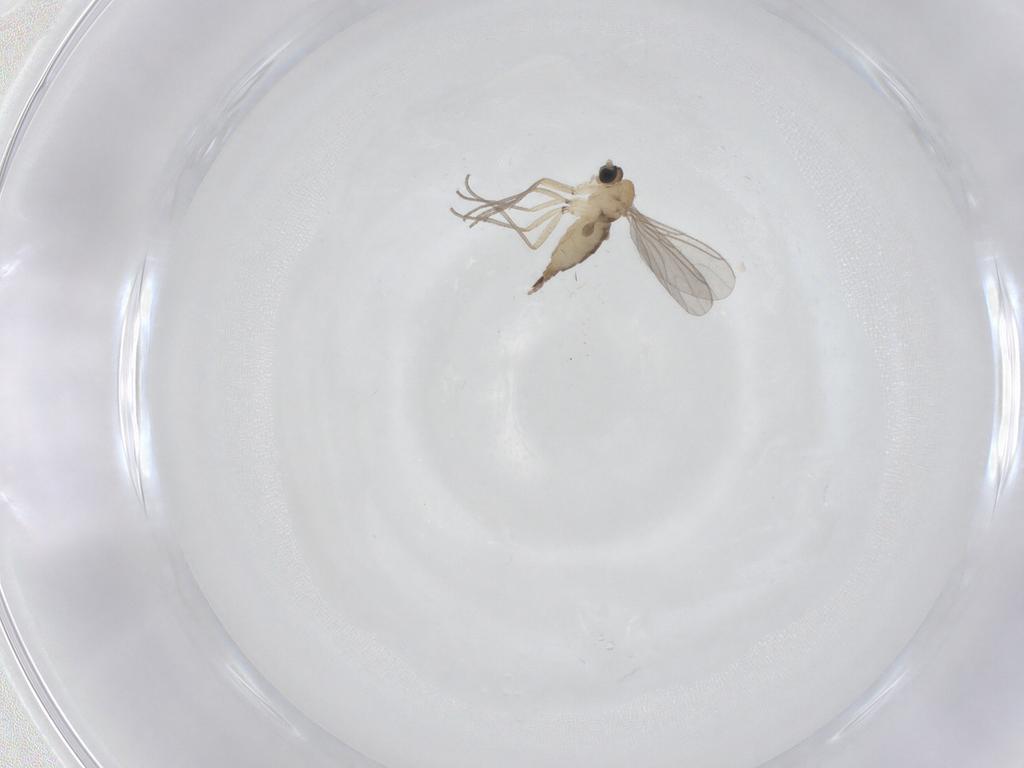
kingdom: Animalia
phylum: Arthropoda
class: Insecta
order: Diptera
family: Sciaridae
